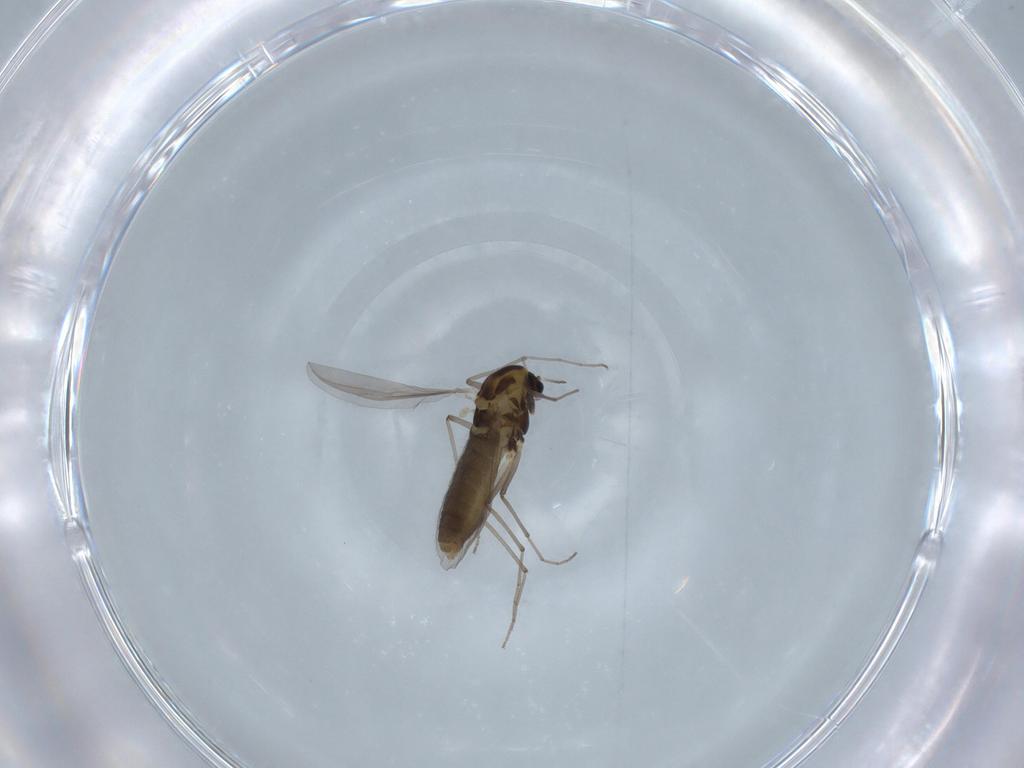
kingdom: Animalia
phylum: Arthropoda
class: Insecta
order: Diptera
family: Chironomidae
